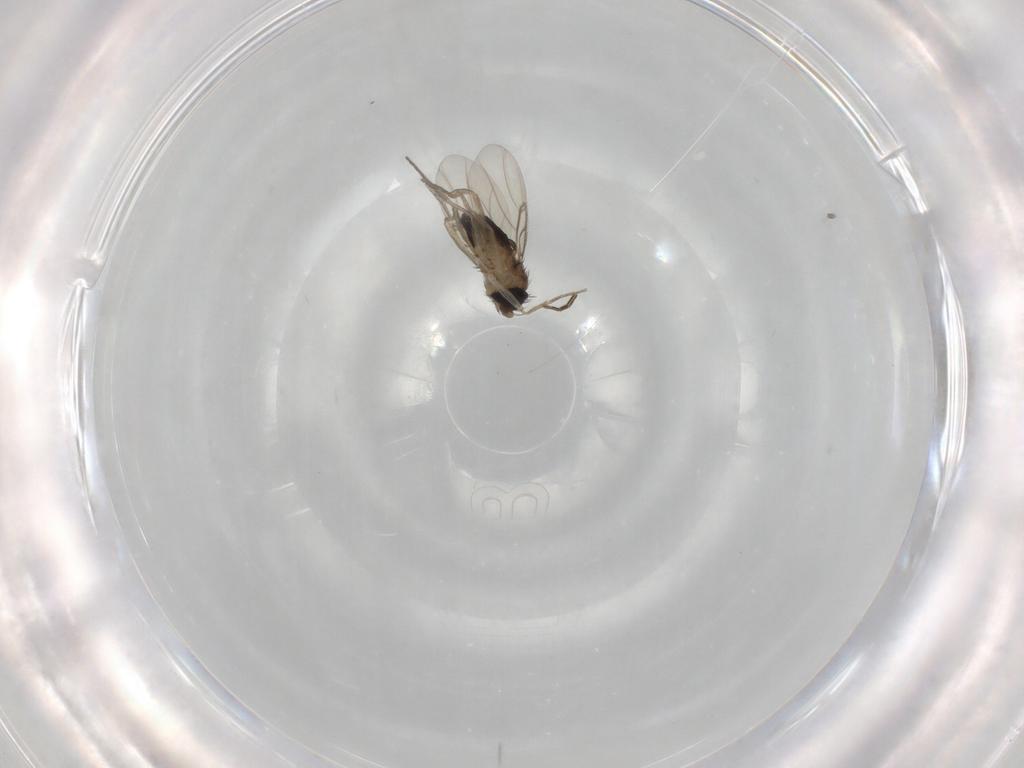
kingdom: Animalia
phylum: Arthropoda
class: Insecta
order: Diptera
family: Phoridae
